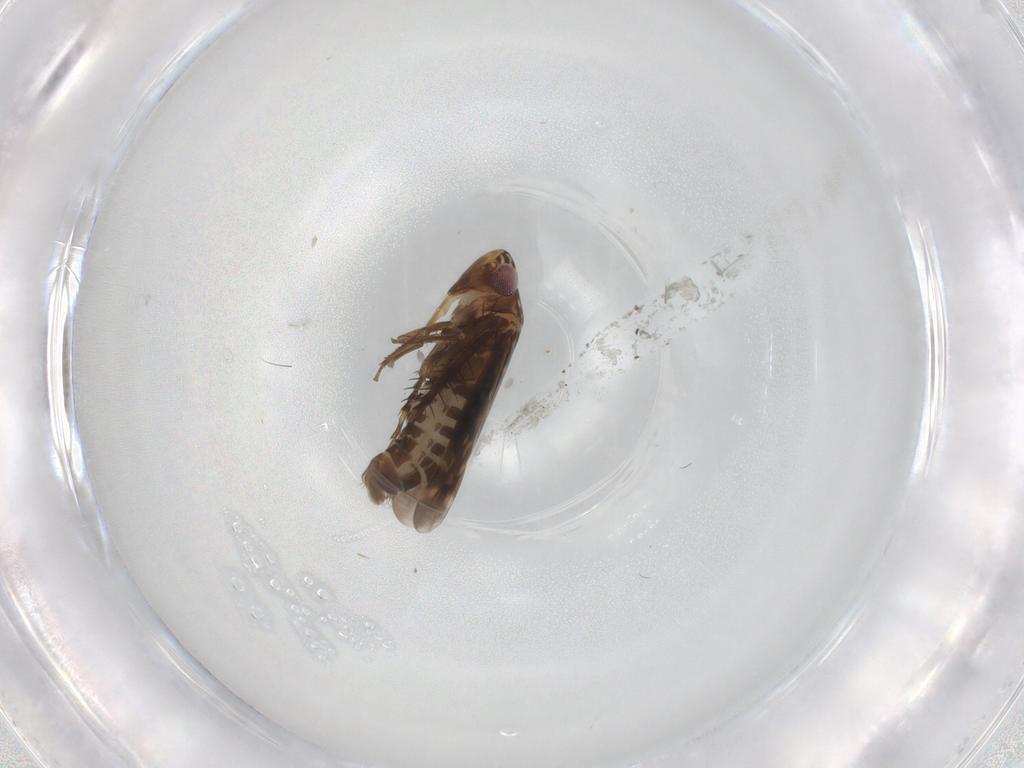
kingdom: Animalia
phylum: Arthropoda
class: Insecta
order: Hemiptera
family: Cicadellidae
